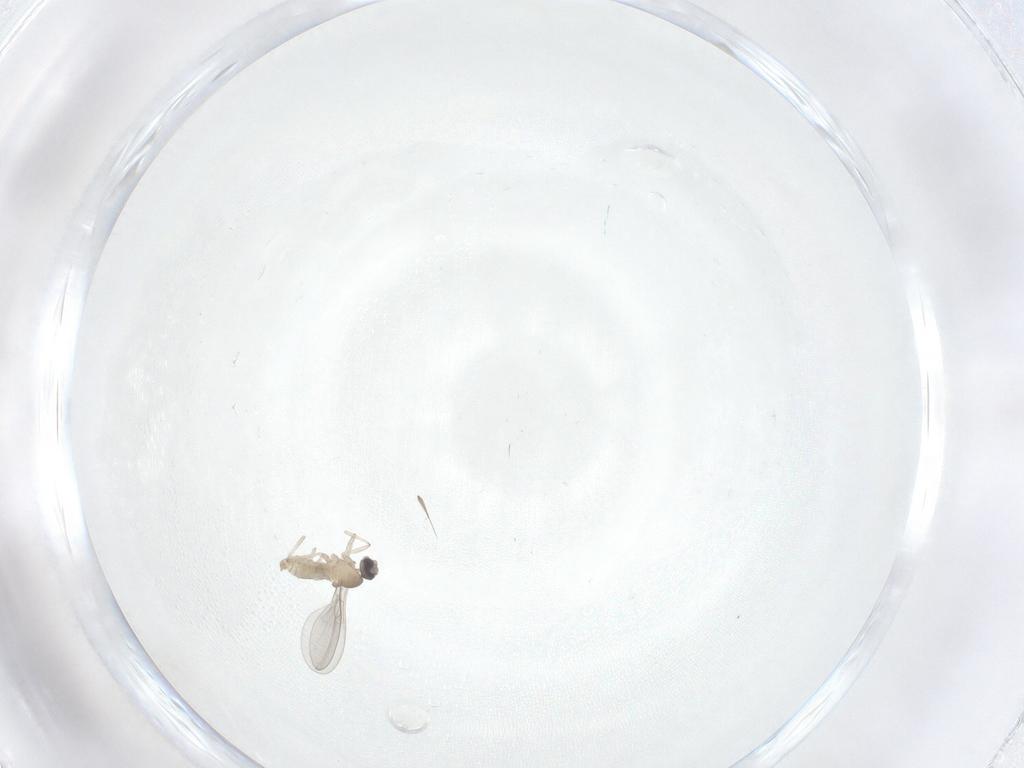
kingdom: Animalia
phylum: Arthropoda
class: Insecta
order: Diptera
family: Cecidomyiidae
